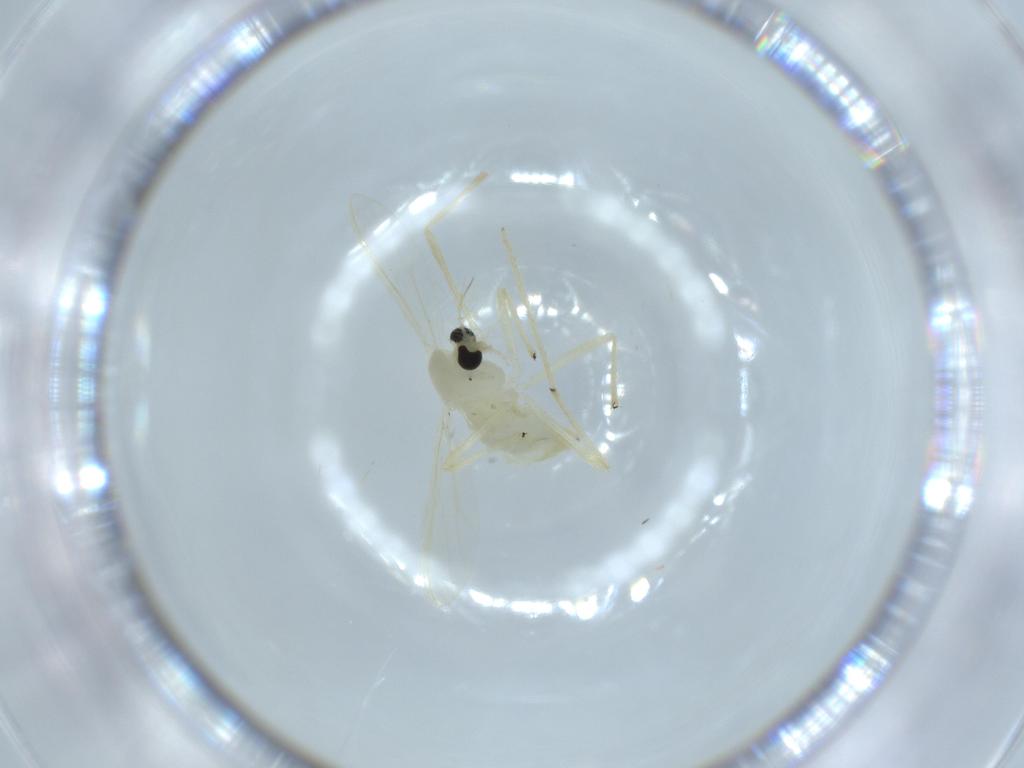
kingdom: Animalia
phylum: Arthropoda
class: Insecta
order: Diptera
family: Chironomidae
